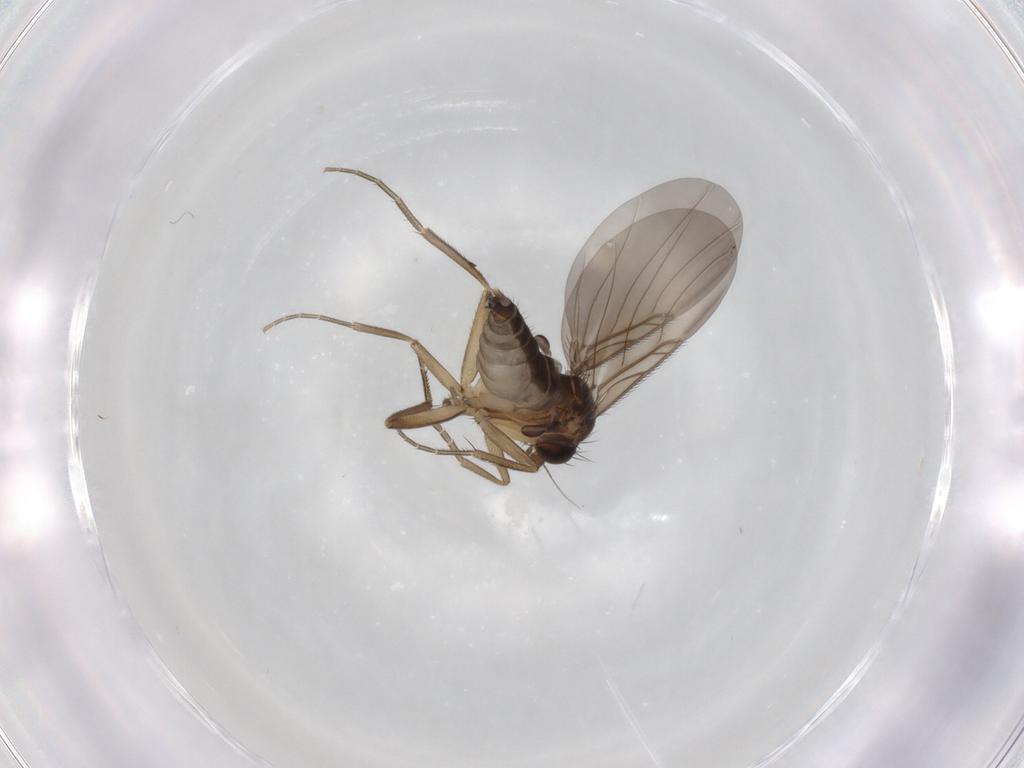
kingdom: Animalia
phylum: Arthropoda
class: Insecta
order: Diptera
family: Phoridae
